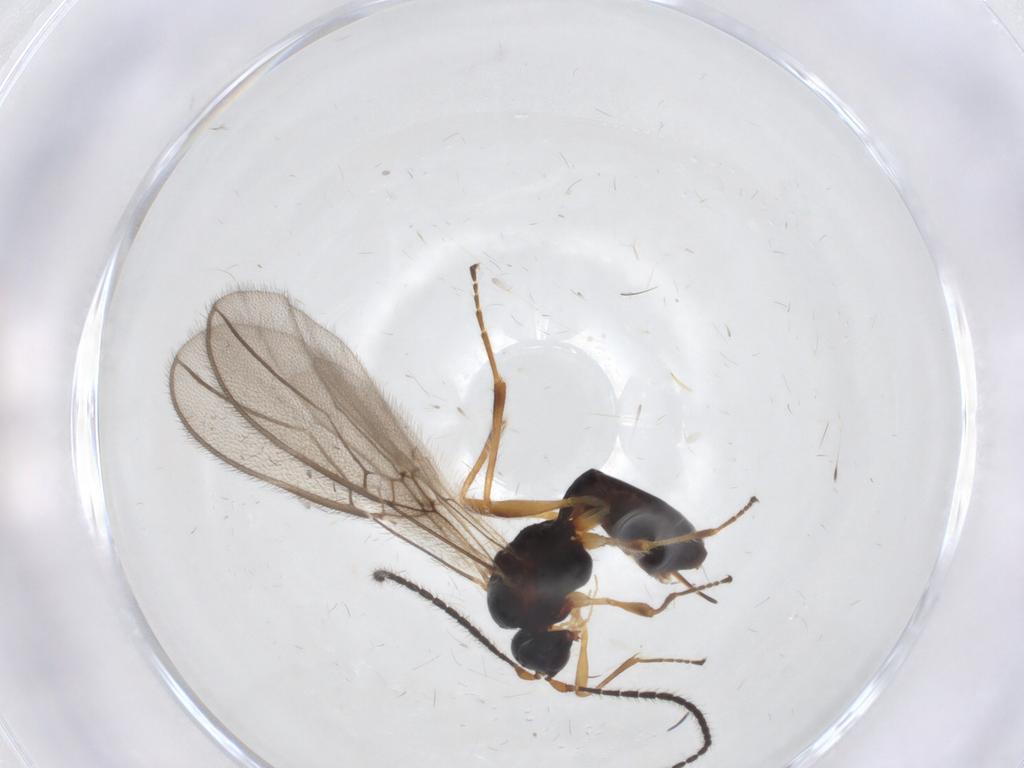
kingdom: Animalia
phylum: Arthropoda
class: Insecta
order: Hymenoptera
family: Braconidae
